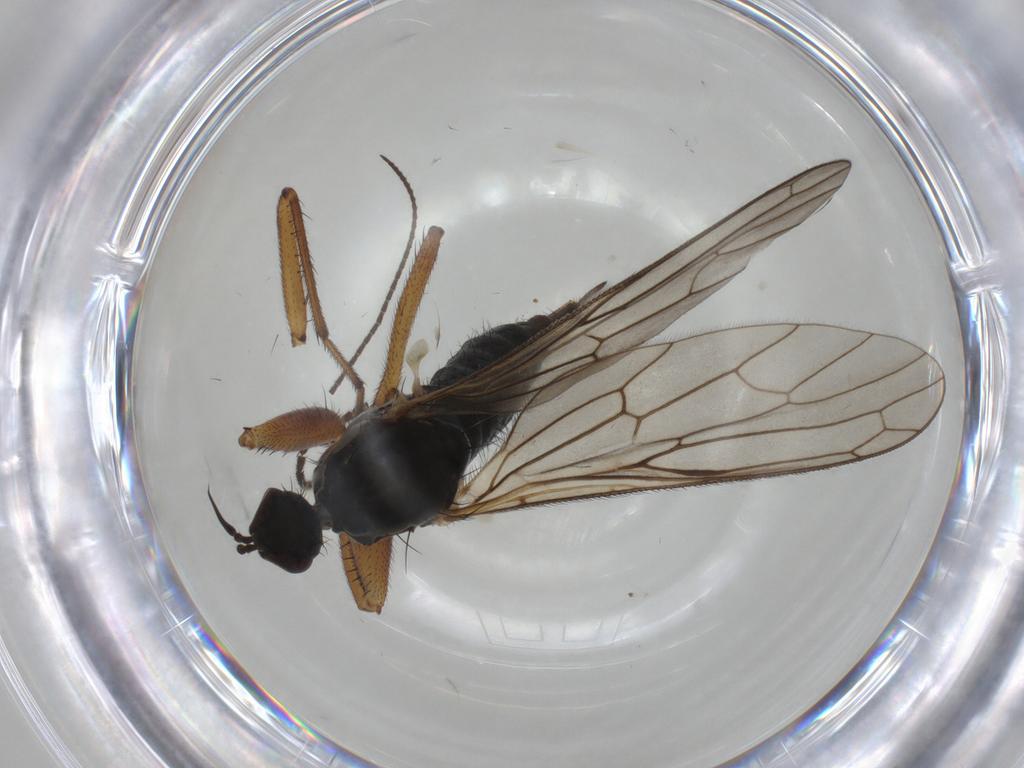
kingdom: Animalia
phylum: Arthropoda
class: Insecta
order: Diptera
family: Empididae
